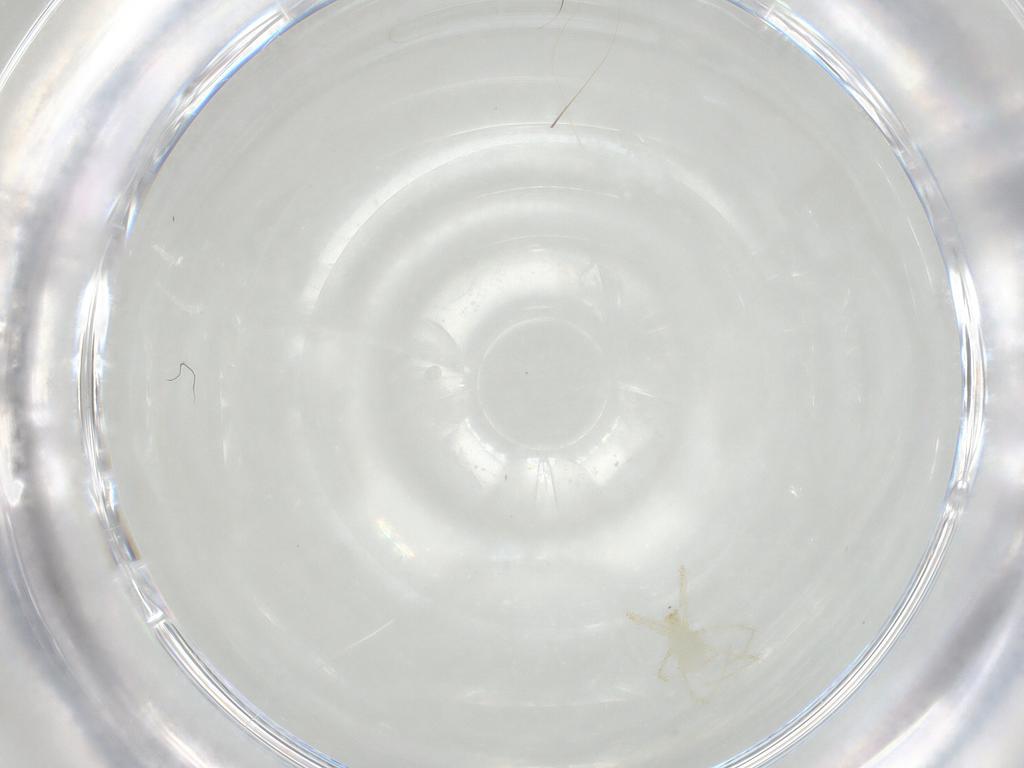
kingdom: Animalia
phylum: Arthropoda
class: Arachnida
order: Trombidiformes
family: Erythraeidae
